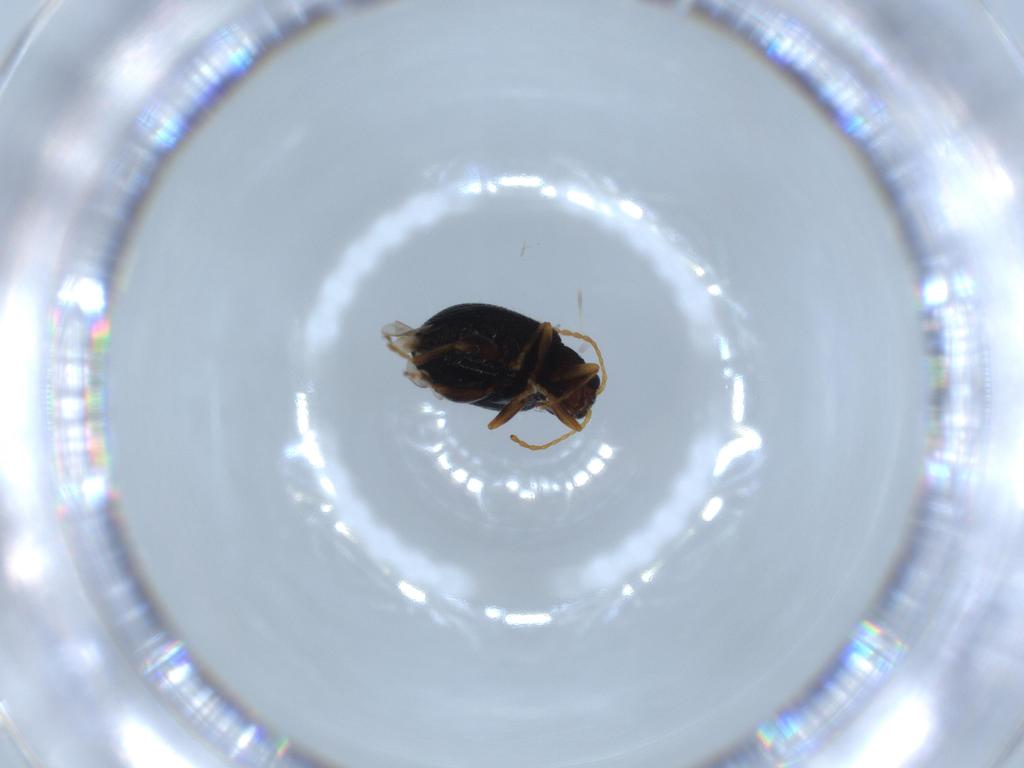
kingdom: Animalia
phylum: Arthropoda
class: Insecta
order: Coleoptera
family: Chrysomelidae
